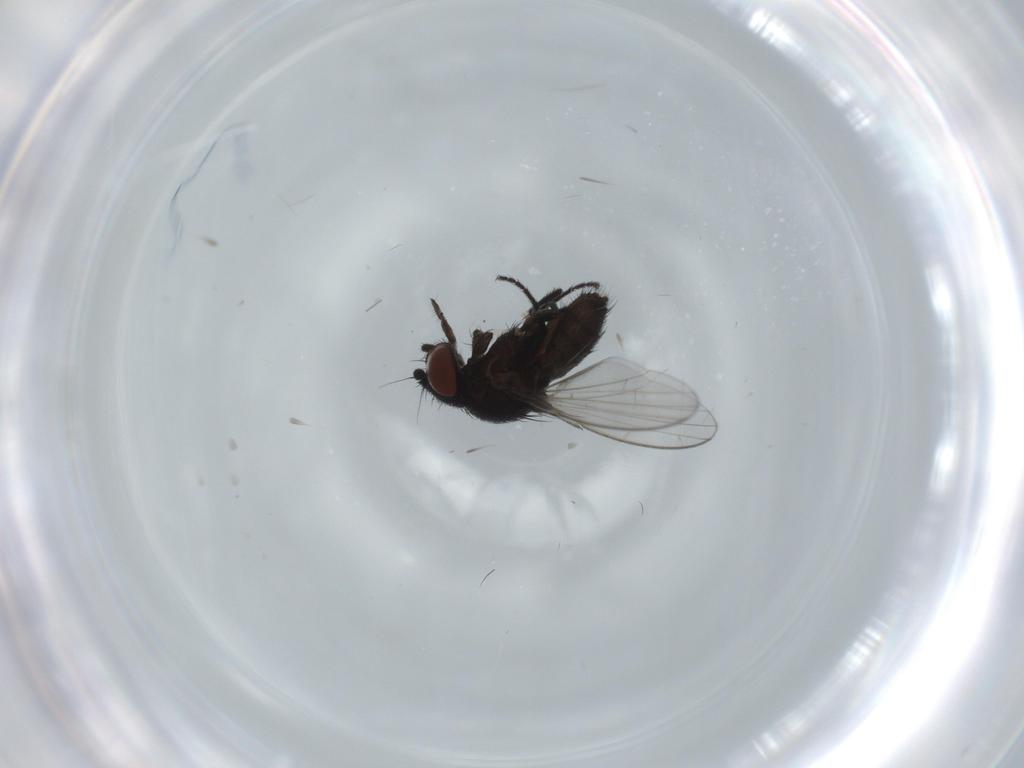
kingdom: Animalia
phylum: Arthropoda
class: Insecta
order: Diptera
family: Milichiidae
